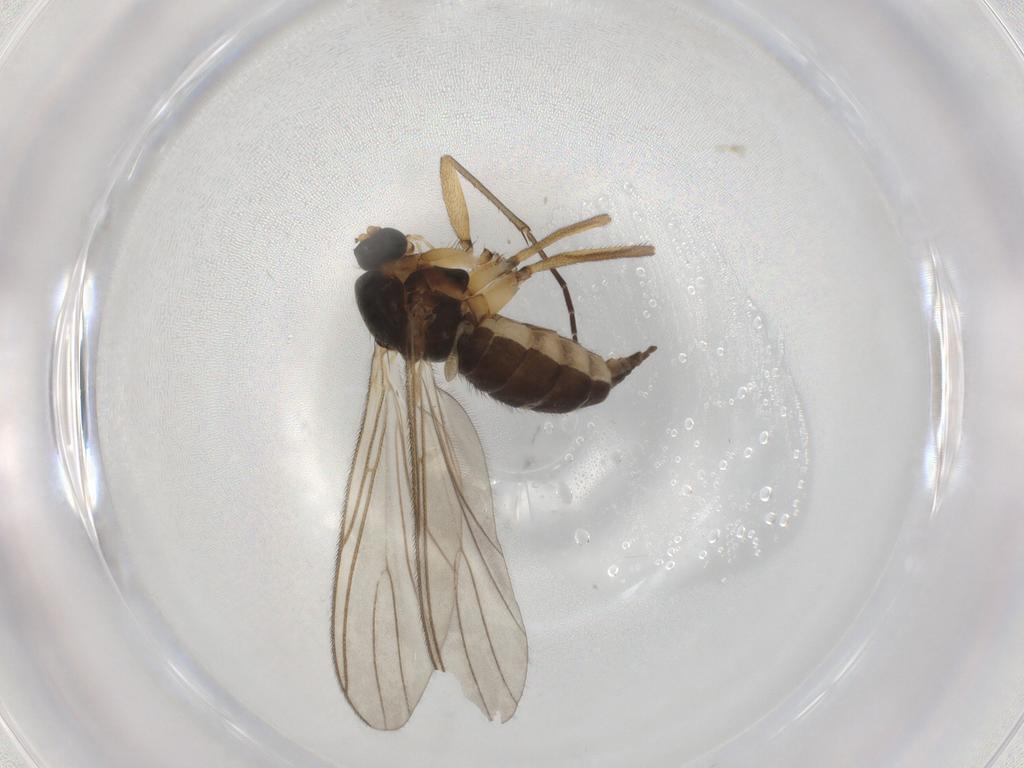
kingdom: Animalia
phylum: Arthropoda
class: Insecta
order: Diptera
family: Sciaridae
